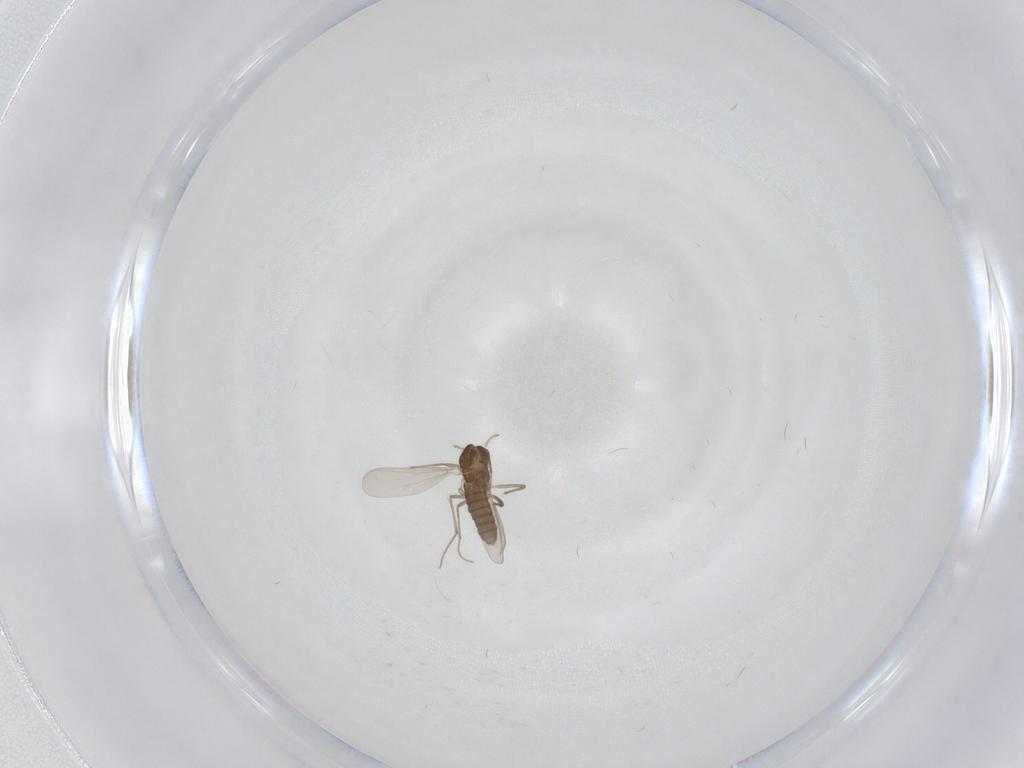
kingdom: Animalia
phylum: Arthropoda
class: Insecta
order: Diptera
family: Chironomidae
